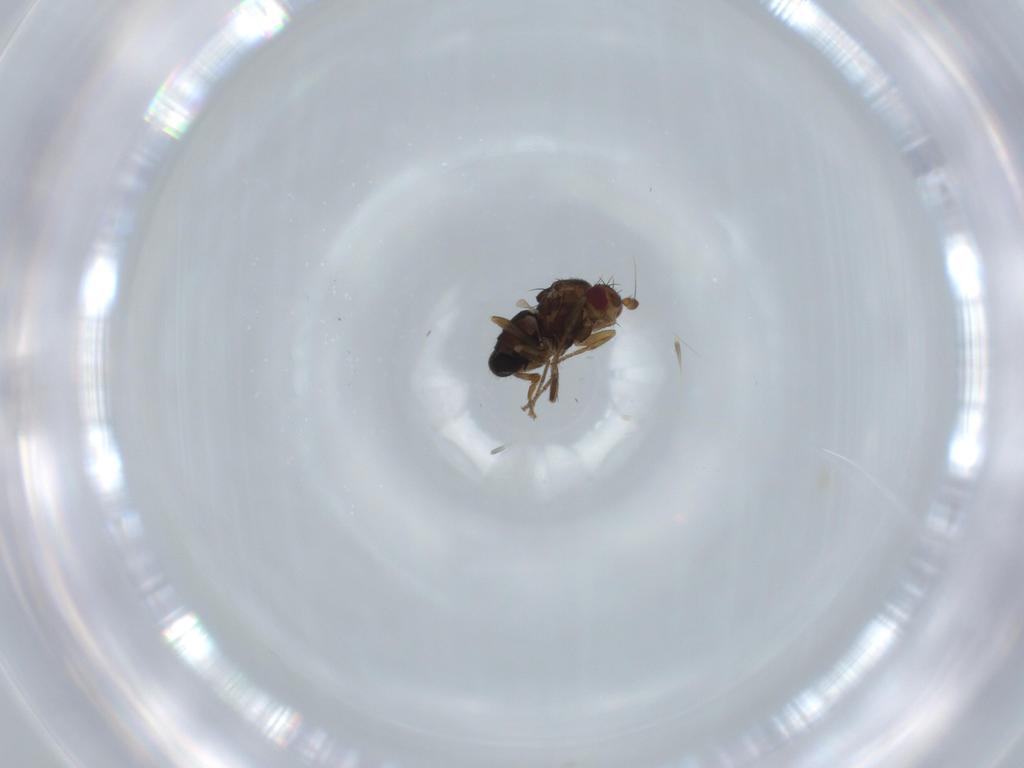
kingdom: Animalia
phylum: Arthropoda
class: Insecta
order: Diptera
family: Sphaeroceridae
